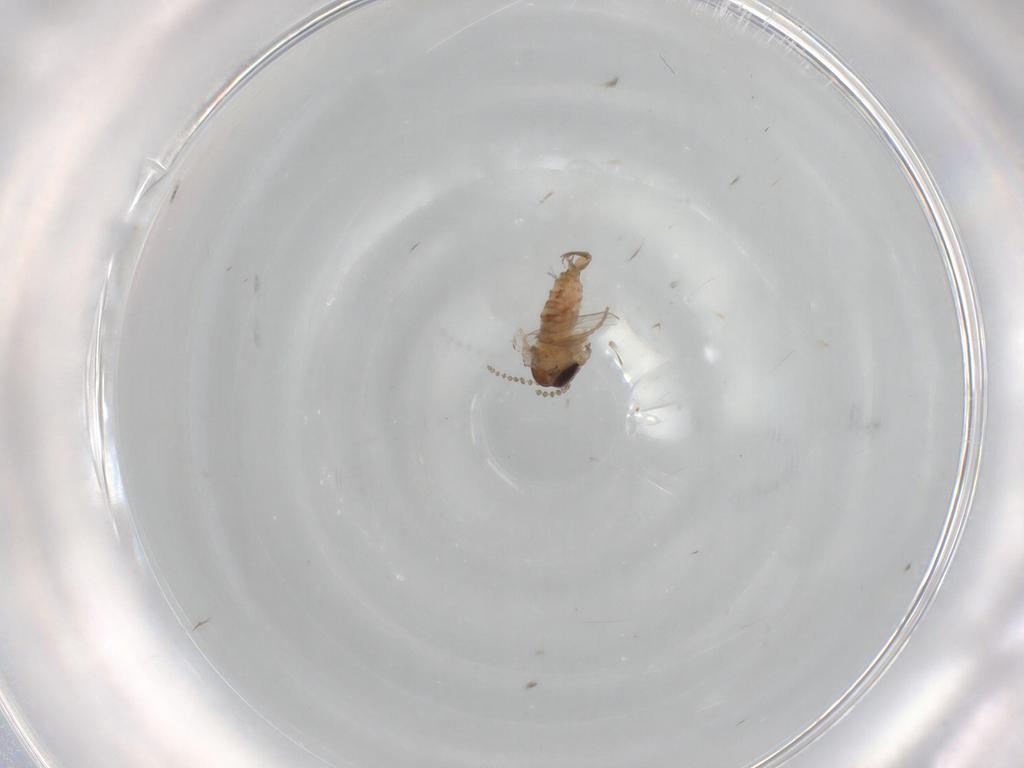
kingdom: Animalia
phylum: Arthropoda
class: Insecta
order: Diptera
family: Psychodidae
